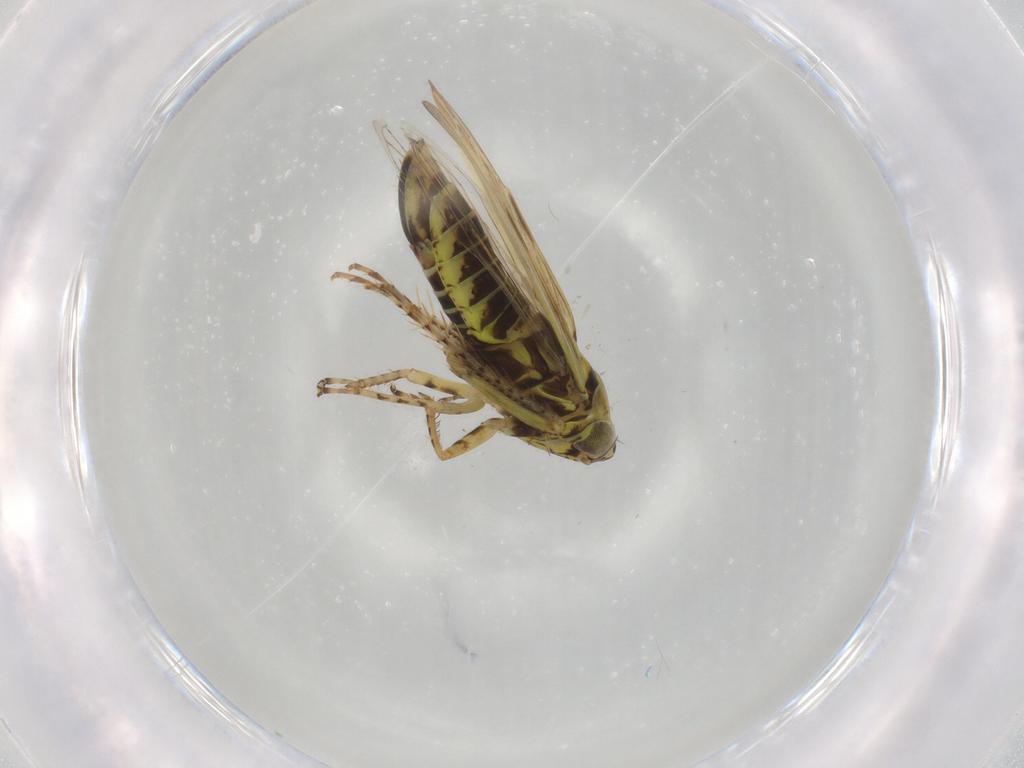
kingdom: Animalia
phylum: Arthropoda
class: Insecta
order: Hemiptera
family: Cicadellidae
